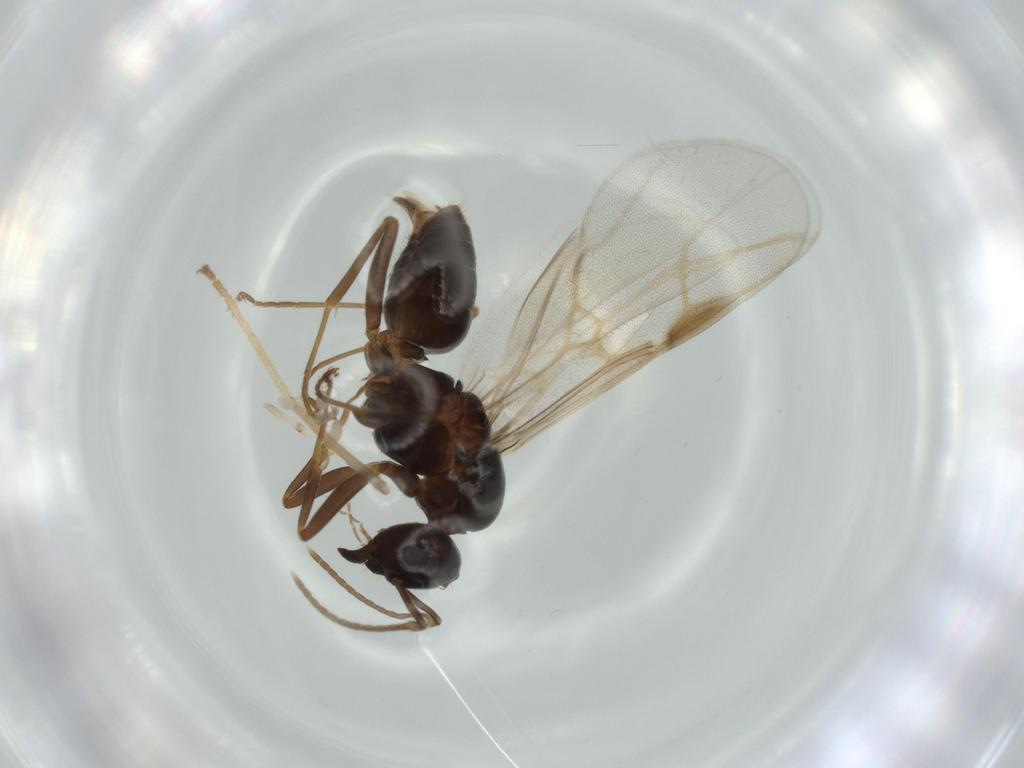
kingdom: Animalia
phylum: Arthropoda
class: Insecta
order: Hymenoptera
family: Formicidae
